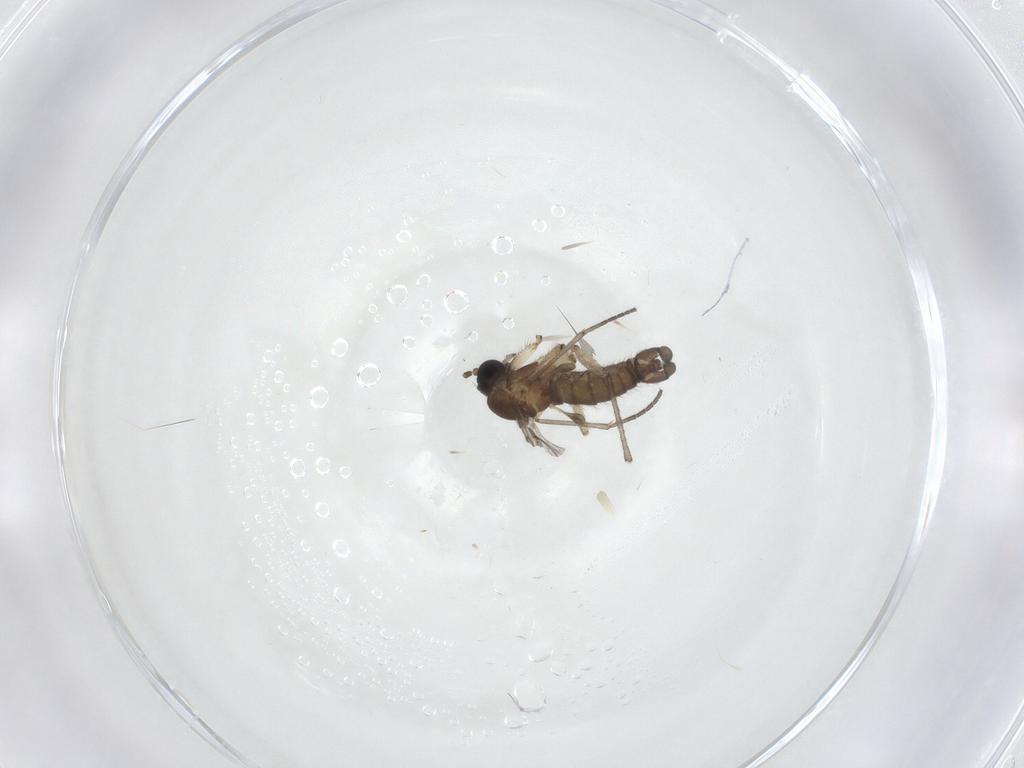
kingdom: Animalia
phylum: Arthropoda
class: Insecta
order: Diptera
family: Sciaridae
